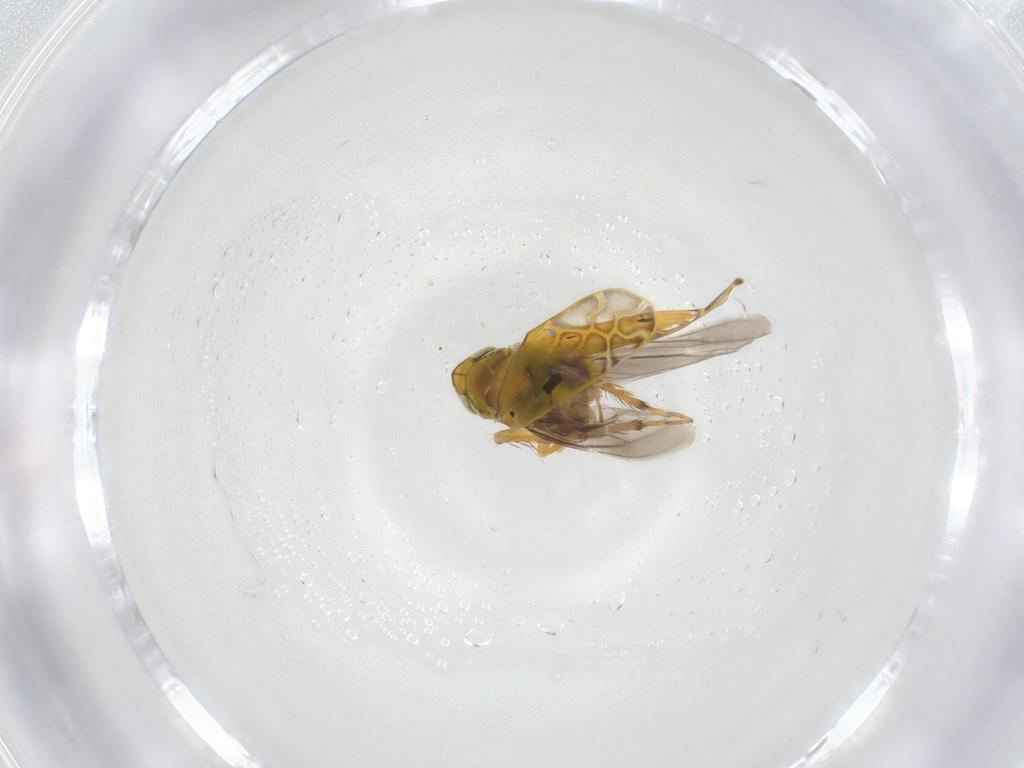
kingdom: Animalia
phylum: Arthropoda
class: Insecta
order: Hemiptera
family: Cicadellidae
